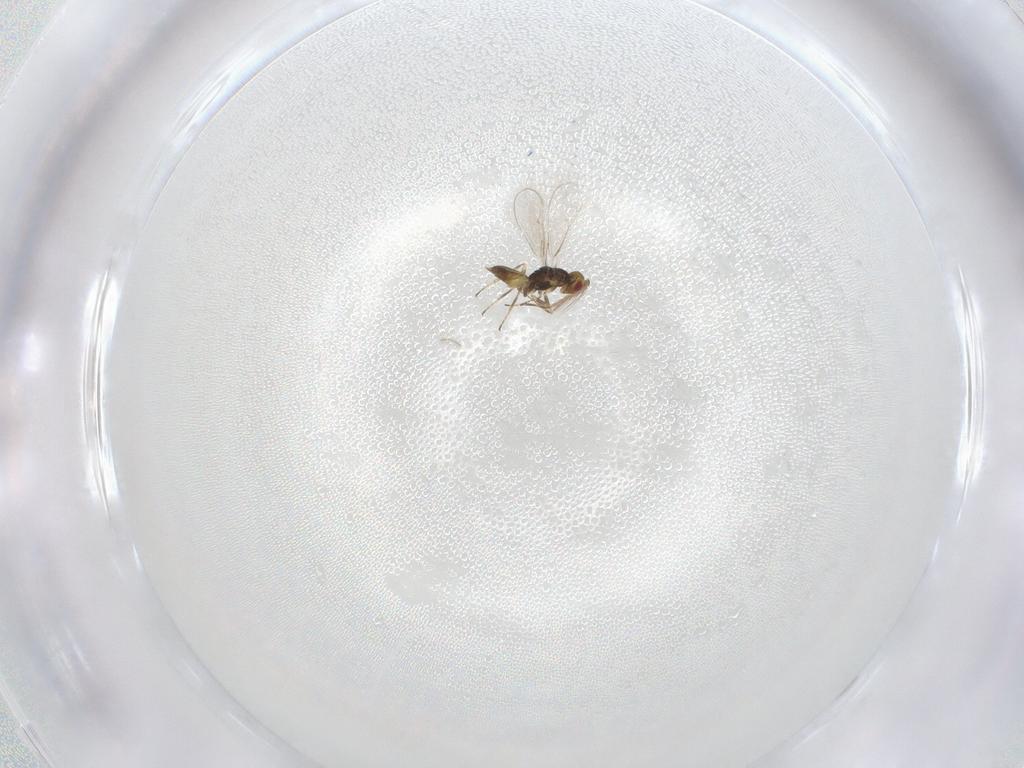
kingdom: Animalia
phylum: Arthropoda
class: Insecta
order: Hymenoptera
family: Eulophidae
